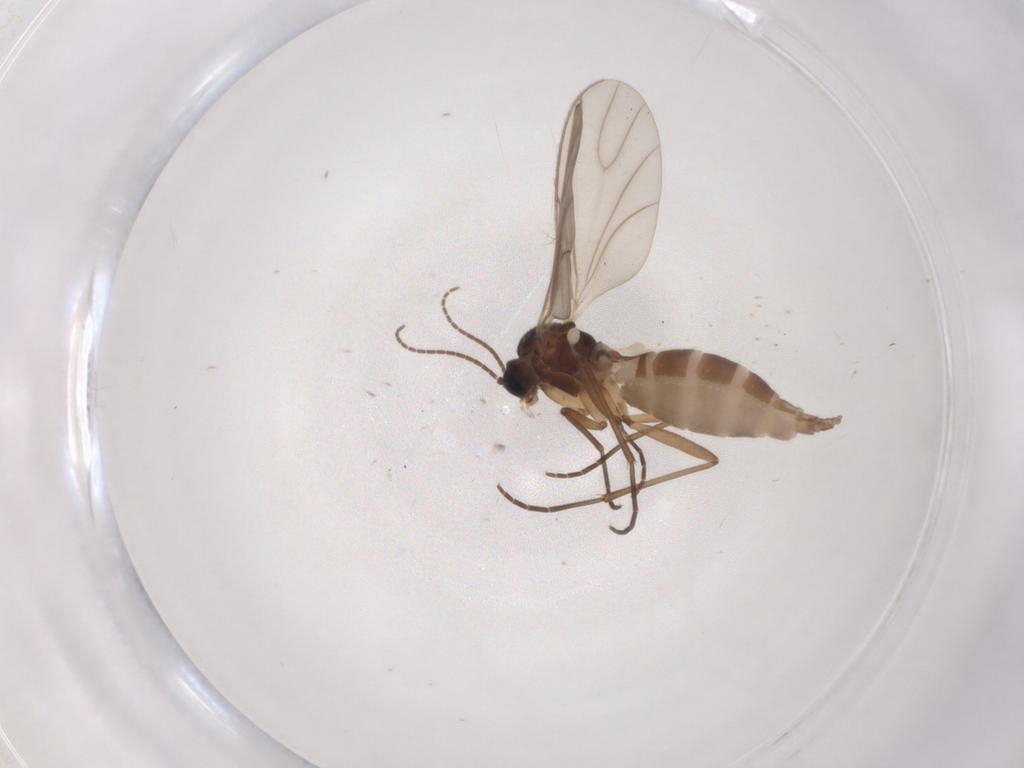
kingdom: Animalia
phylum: Arthropoda
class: Insecta
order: Diptera
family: Sciaridae
